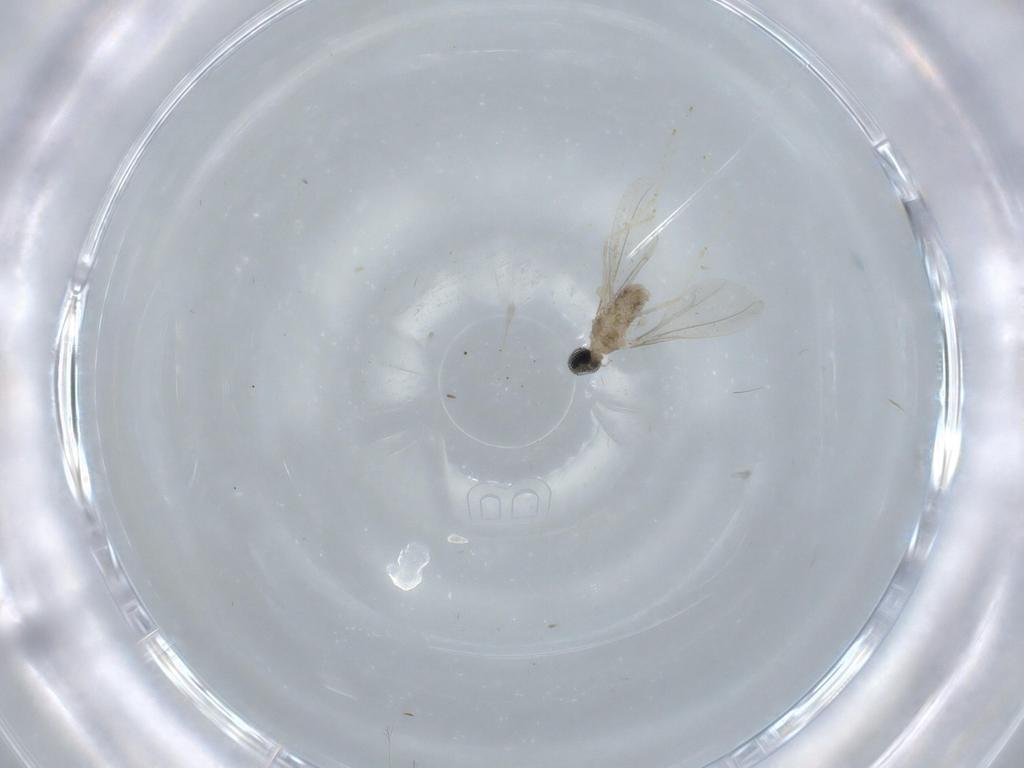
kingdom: Animalia
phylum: Arthropoda
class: Insecta
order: Diptera
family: Cecidomyiidae
